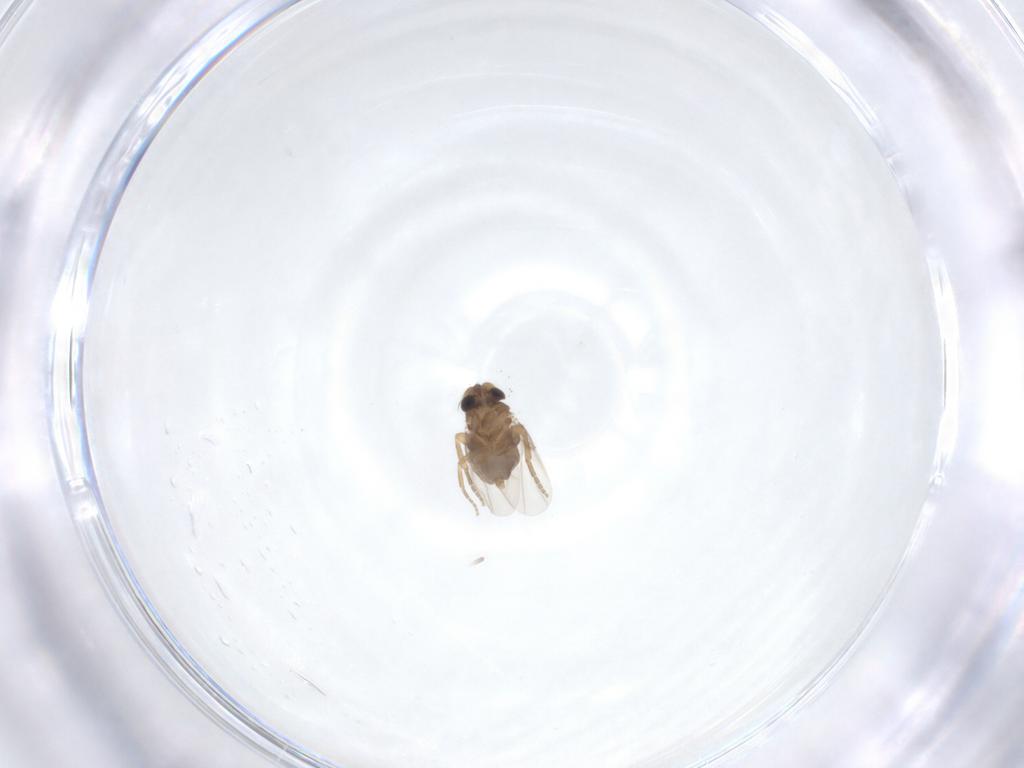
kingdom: Animalia
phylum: Arthropoda
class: Insecta
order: Diptera
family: Phoridae
